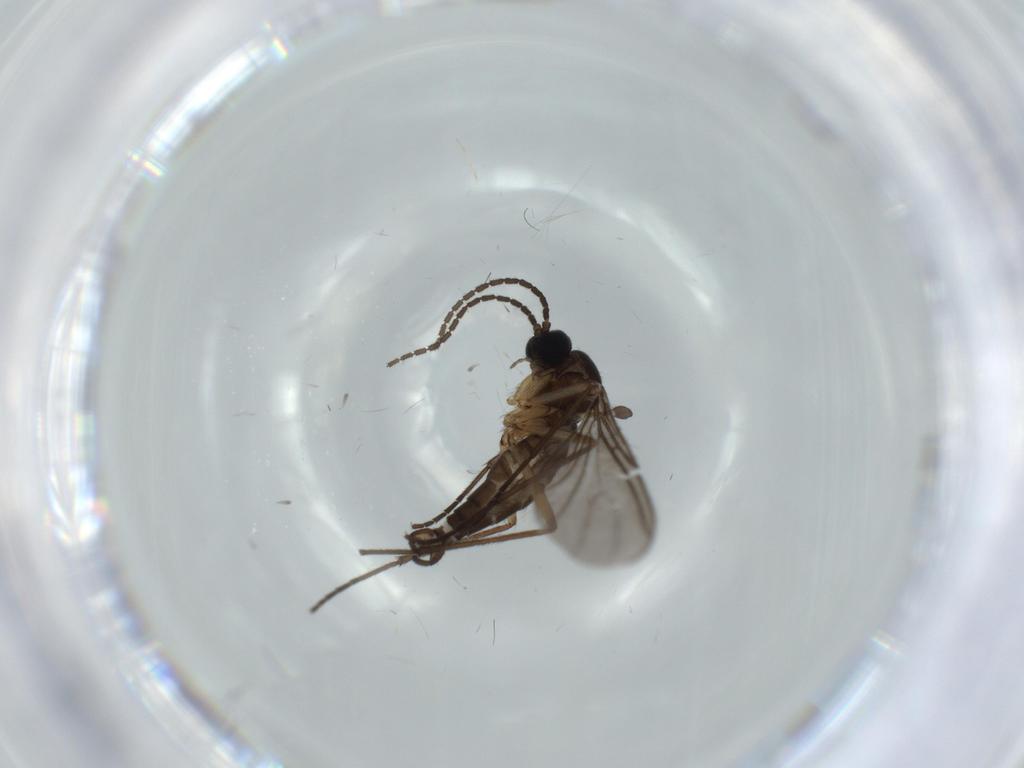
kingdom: Animalia
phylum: Arthropoda
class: Insecta
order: Diptera
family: Sciaridae
